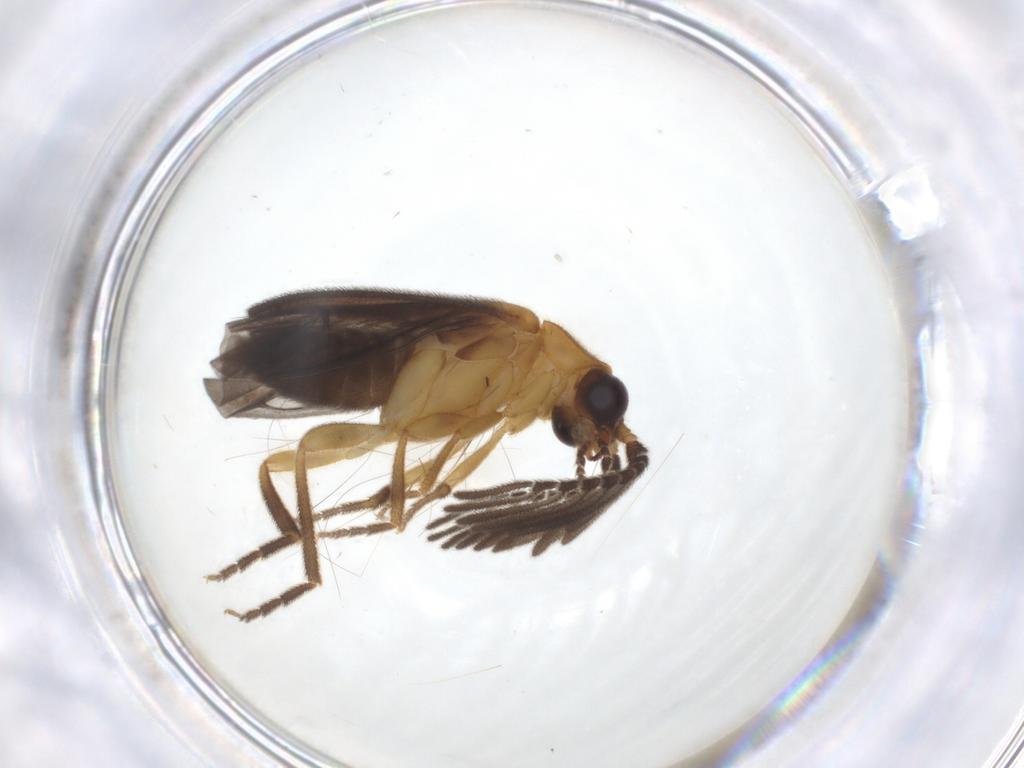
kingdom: Animalia
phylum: Arthropoda
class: Insecta
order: Coleoptera
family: Lampyridae
